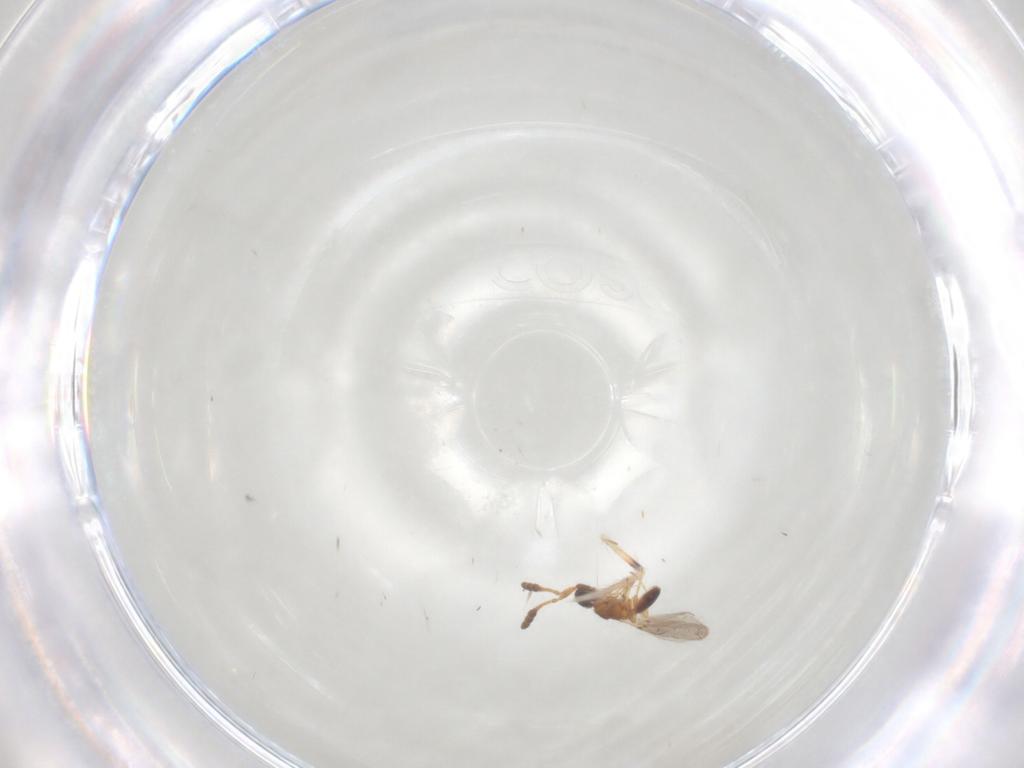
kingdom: Animalia
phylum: Arthropoda
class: Insecta
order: Hymenoptera
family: Diapriidae
